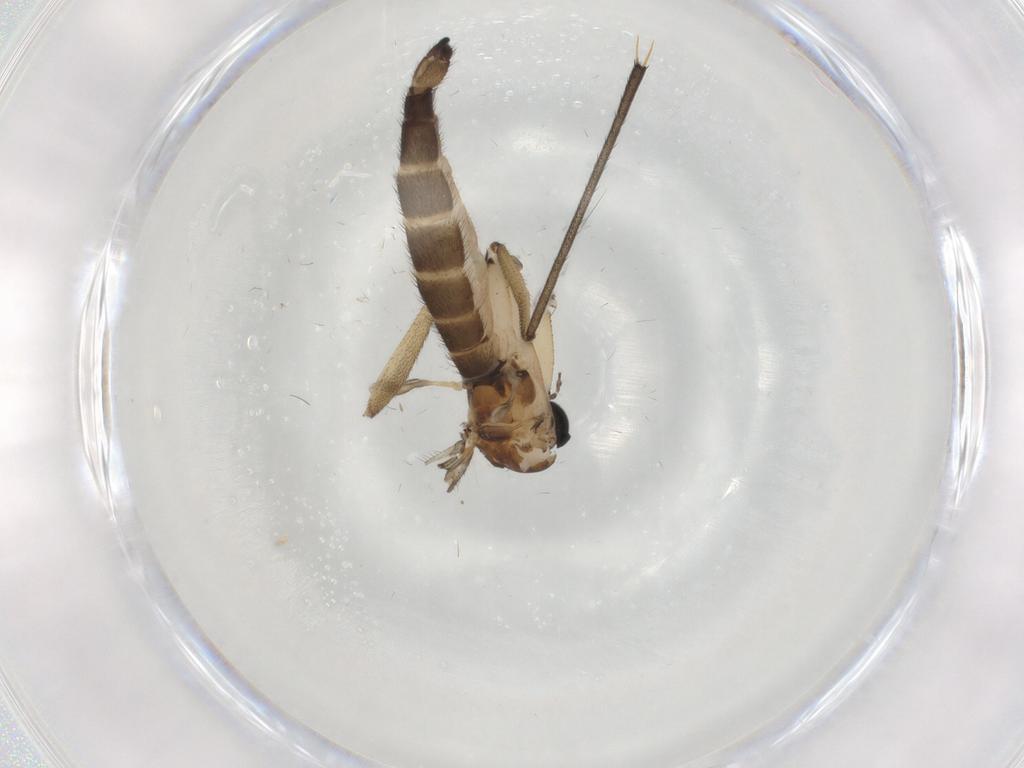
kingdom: Animalia
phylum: Arthropoda
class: Insecta
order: Diptera
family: Sciaridae
